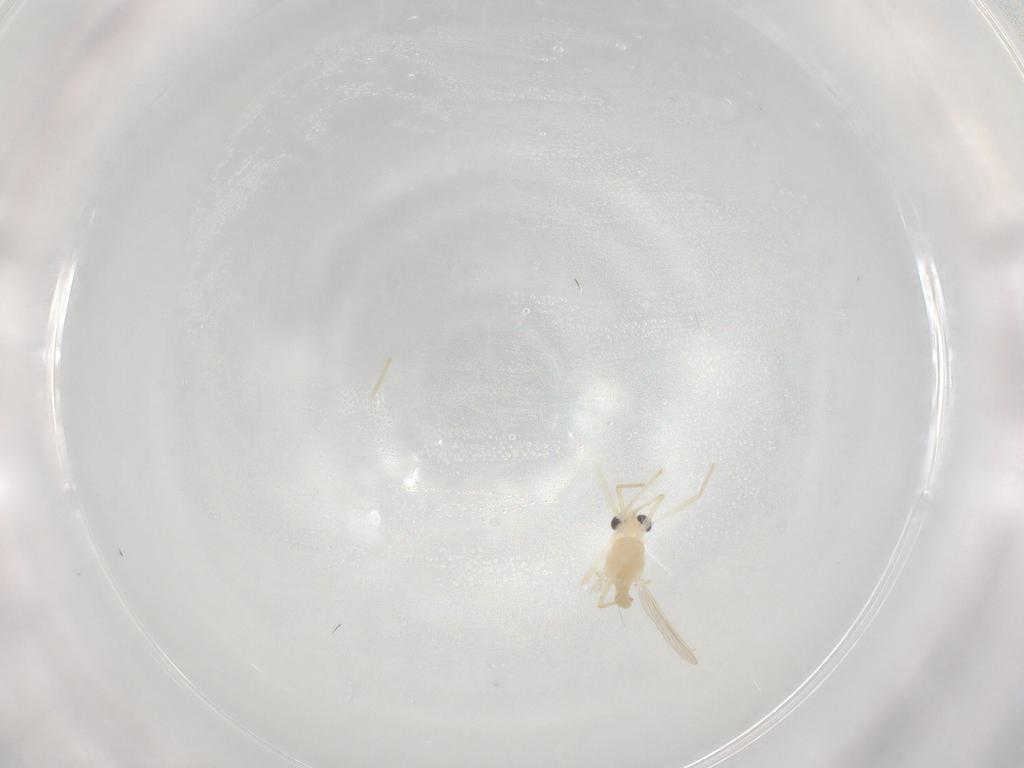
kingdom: Animalia
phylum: Arthropoda
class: Insecta
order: Diptera
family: Chironomidae
